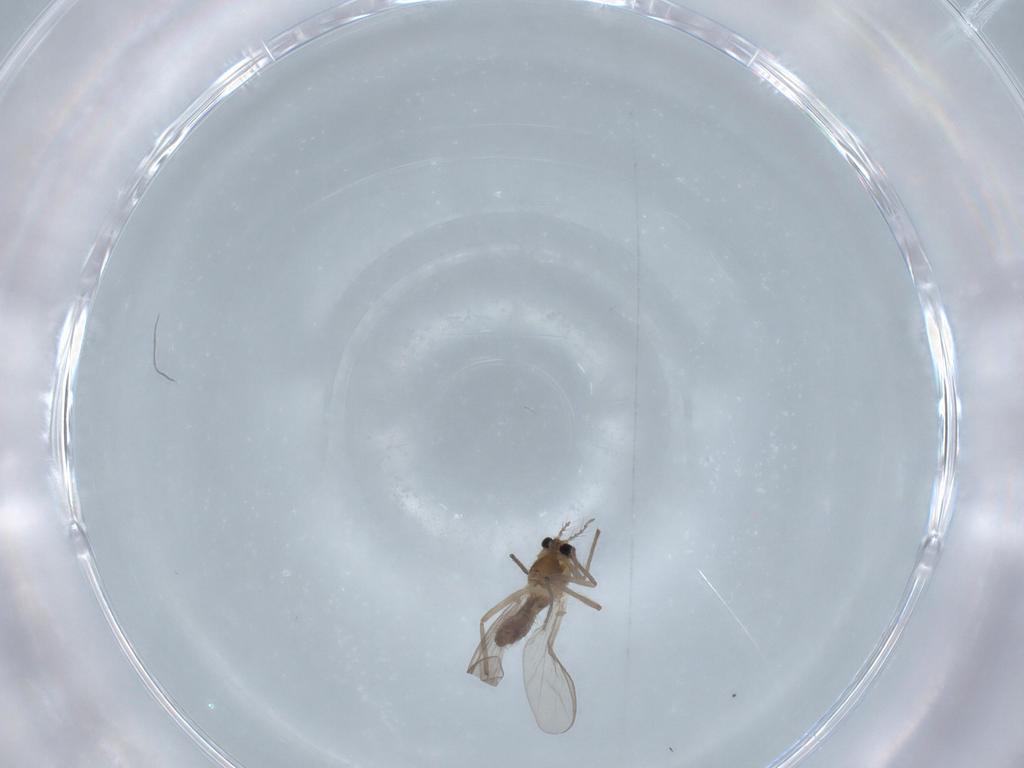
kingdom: Animalia
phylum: Arthropoda
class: Insecta
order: Diptera
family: Chironomidae
